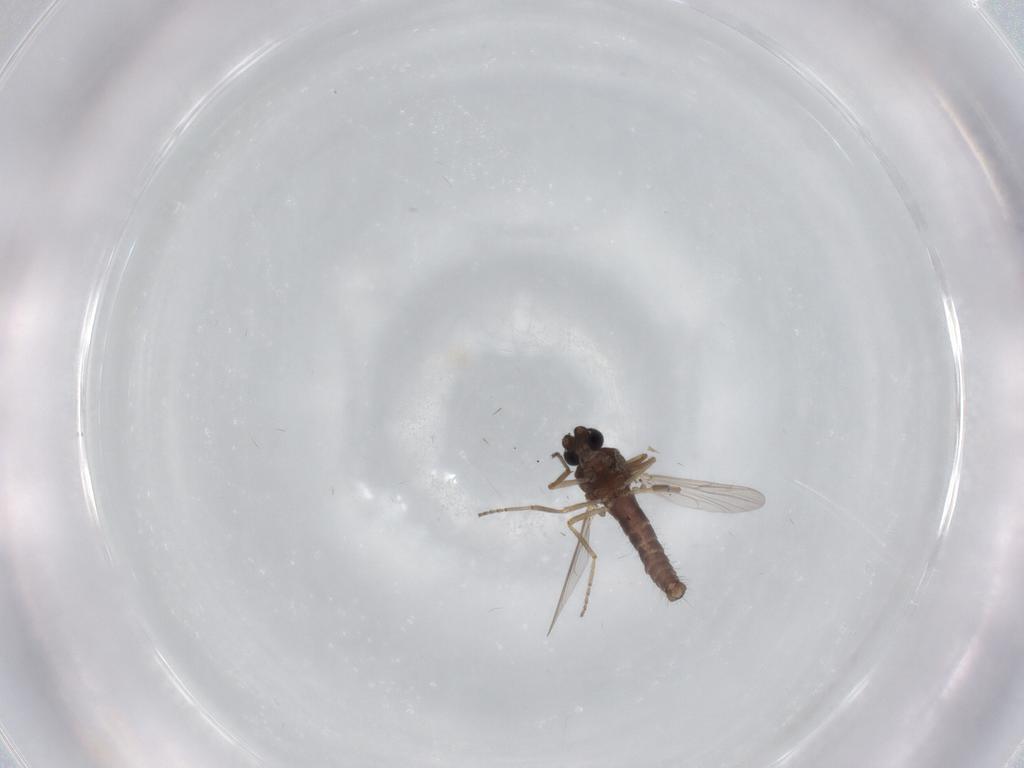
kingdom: Animalia
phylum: Arthropoda
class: Insecta
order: Diptera
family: Ceratopogonidae
